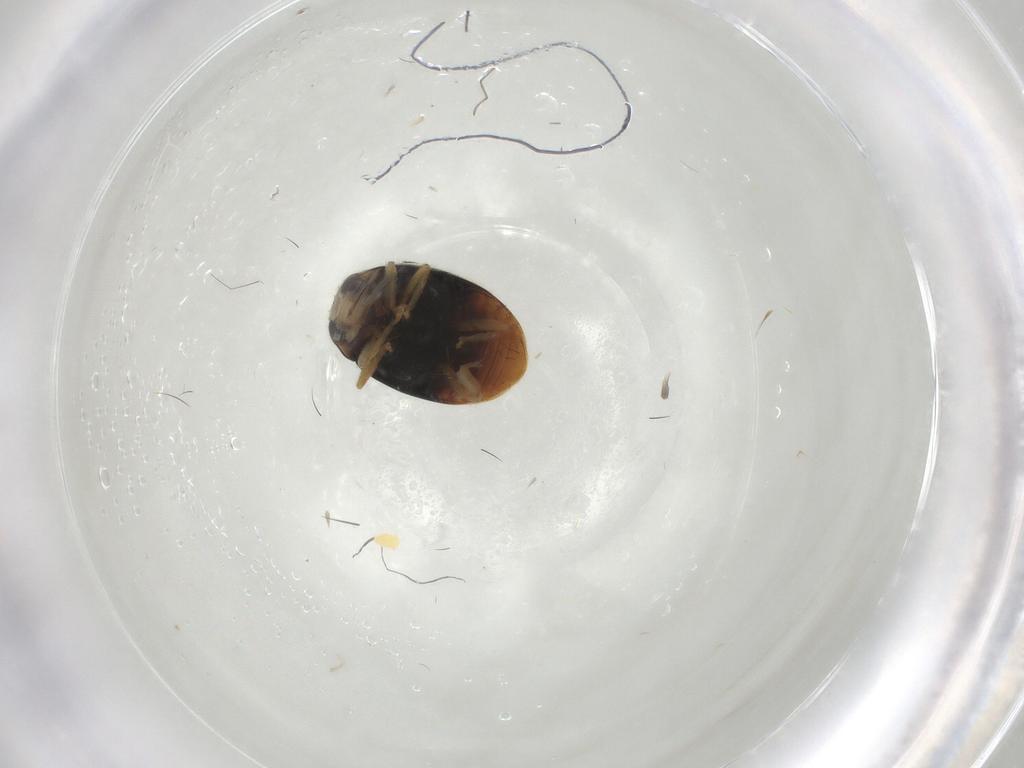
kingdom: Animalia
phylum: Arthropoda
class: Insecta
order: Coleoptera
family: Coccinellidae
